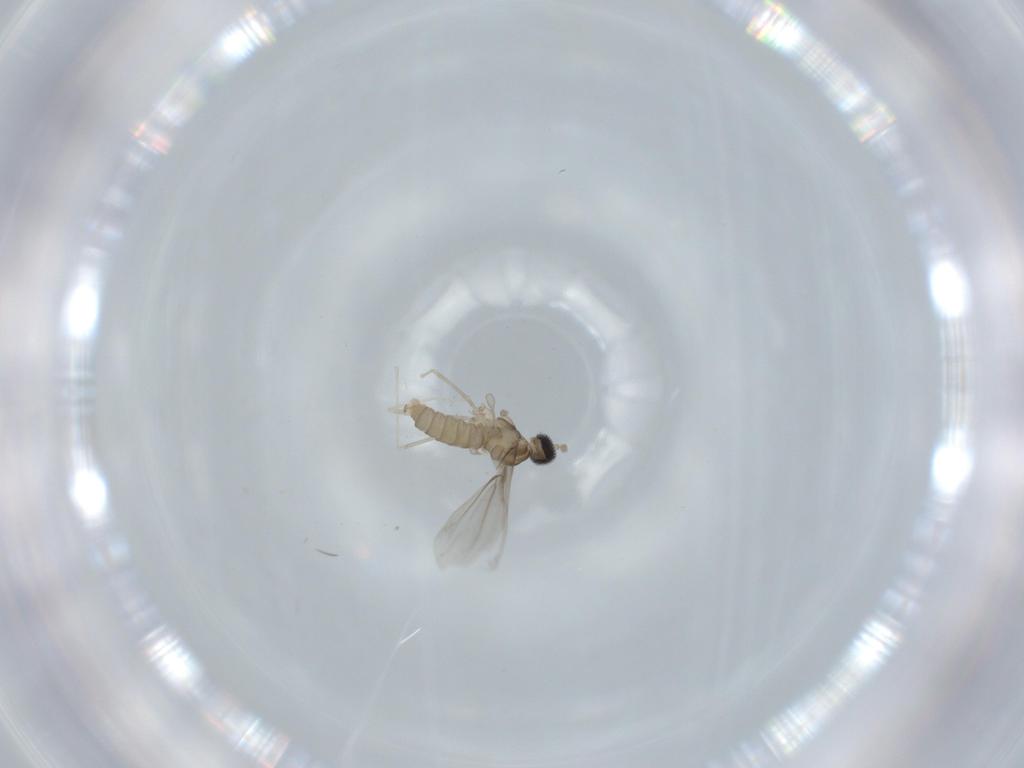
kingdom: Animalia
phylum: Arthropoda
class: Insecta
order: Diptera
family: Cecidomyiidae
